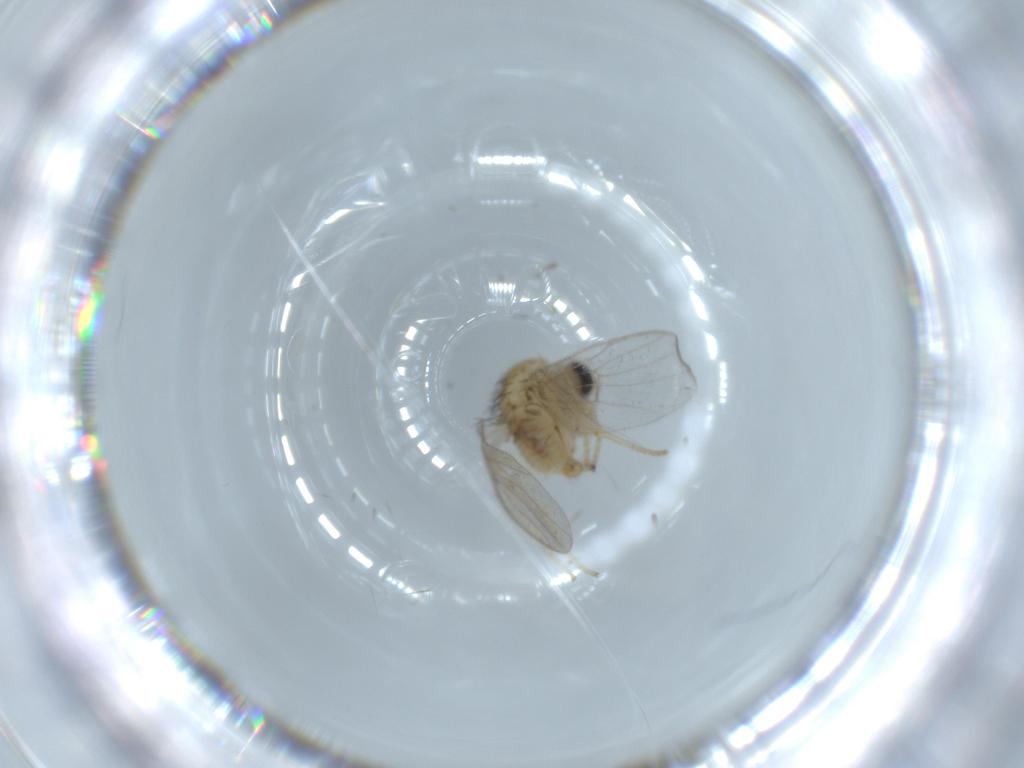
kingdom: Animalia
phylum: Arthropoda
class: Insecta
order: Diptera
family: Hybotidae
